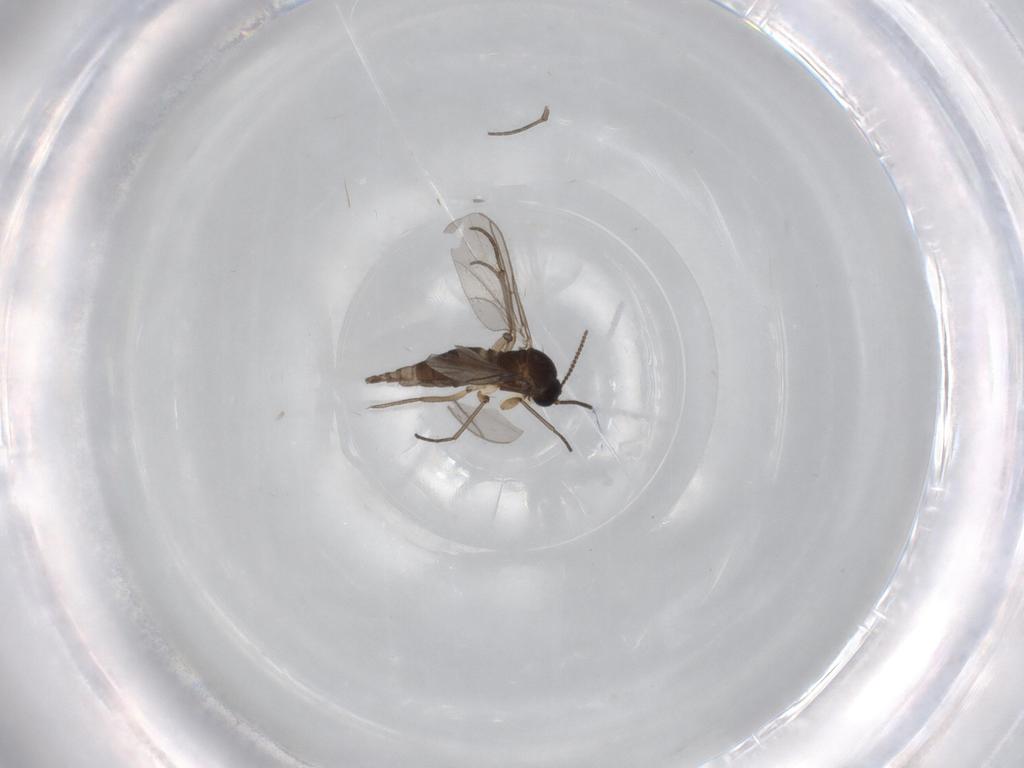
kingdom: Animalia
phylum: Arthropoda
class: Insecta
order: Diptera
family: Sciaridae
